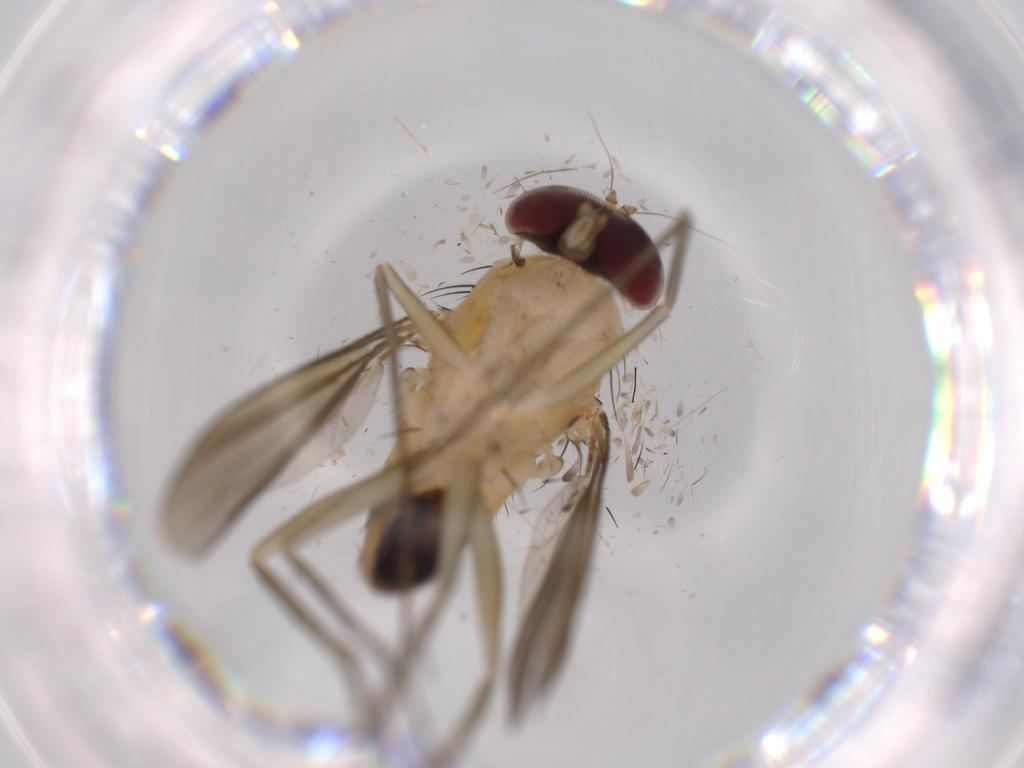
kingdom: Animalia
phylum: Arthropoda
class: Insecta
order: Diptera
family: Dolichopodidae
